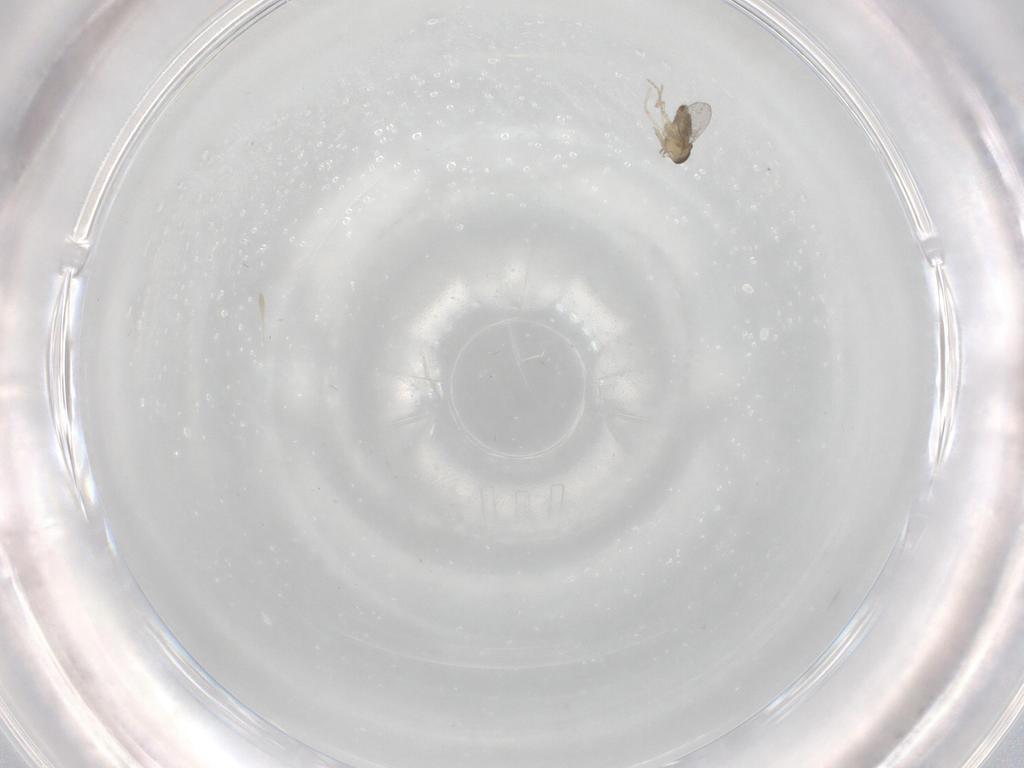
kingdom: Animalia
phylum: Arthropoda
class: Insecta
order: Diptera
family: Cecidomyiidae
